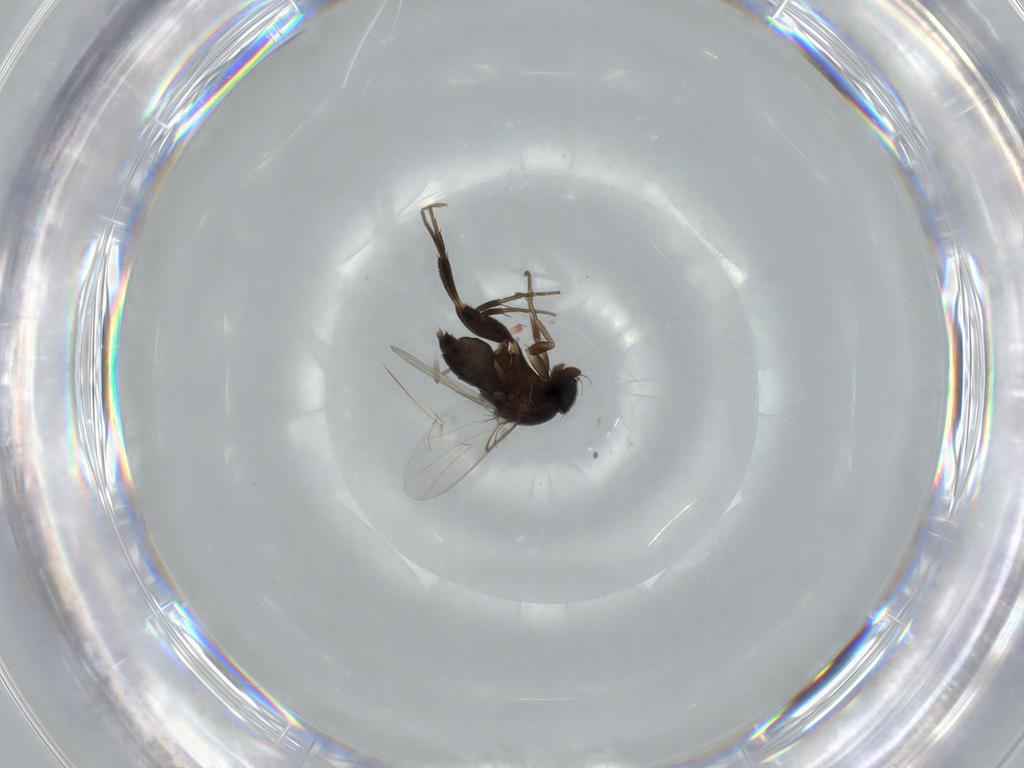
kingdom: Animalia
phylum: Arthropoda
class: Insecta
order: Diptera
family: Phoridae
